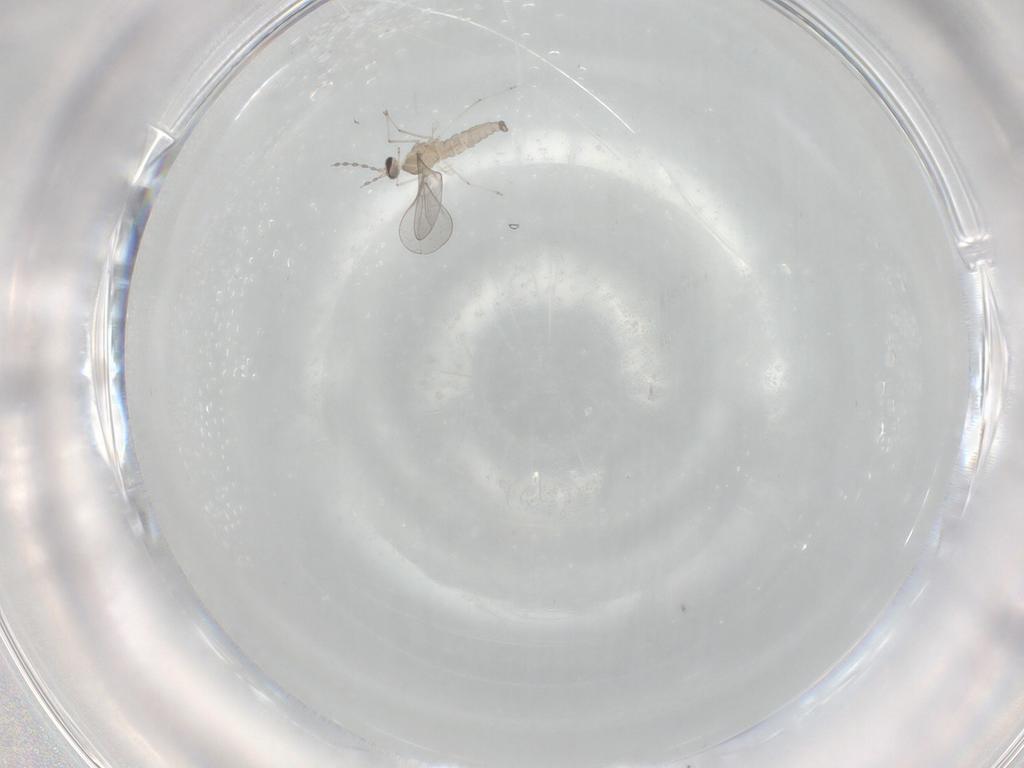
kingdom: Animalia
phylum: Arthropoda
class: Insecta
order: Diptera
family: Cecidomyiidae
